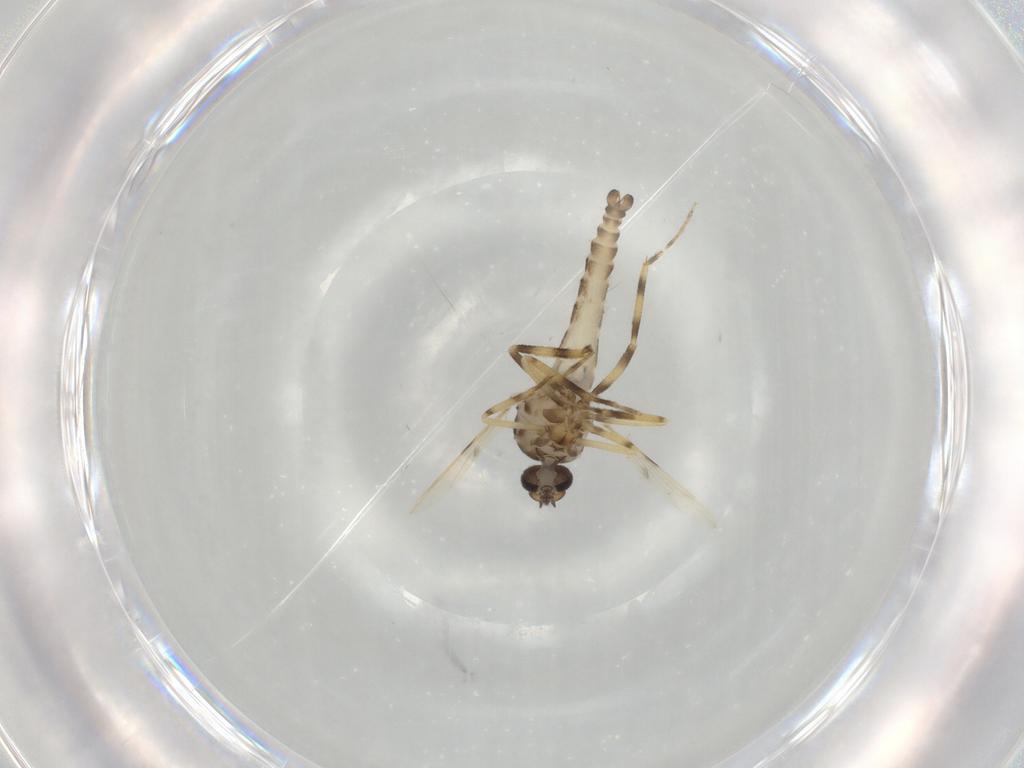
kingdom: Animalia
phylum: Arthropoda
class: Insecta
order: Diptera
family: Ceratopogonidae
